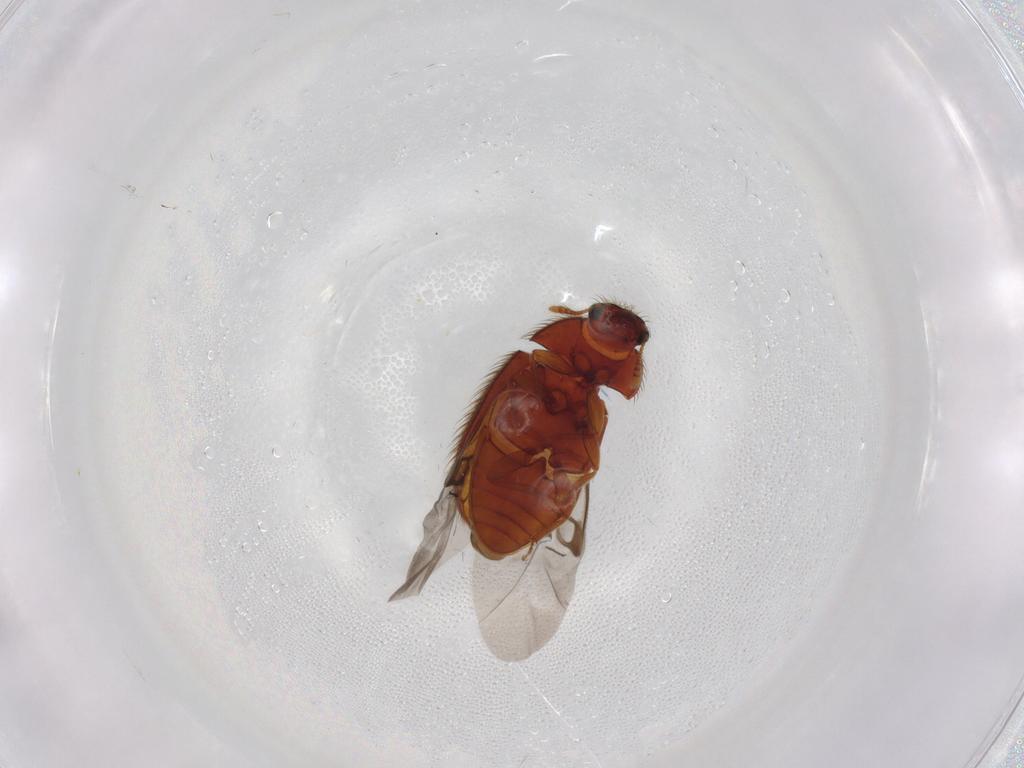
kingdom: Animalia
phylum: Arthropoda
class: Insecta
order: Coleoptera
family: Biphyllidae
